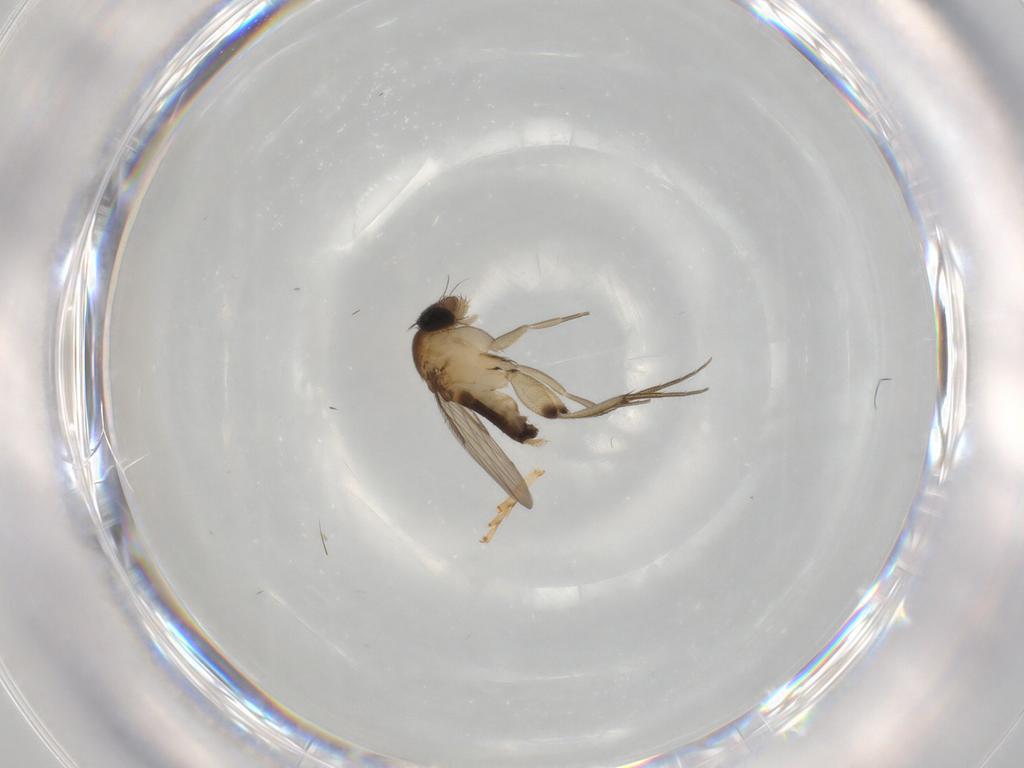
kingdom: Animalia
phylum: Arthropoda
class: Insecta
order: Diptera
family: Phoridae
